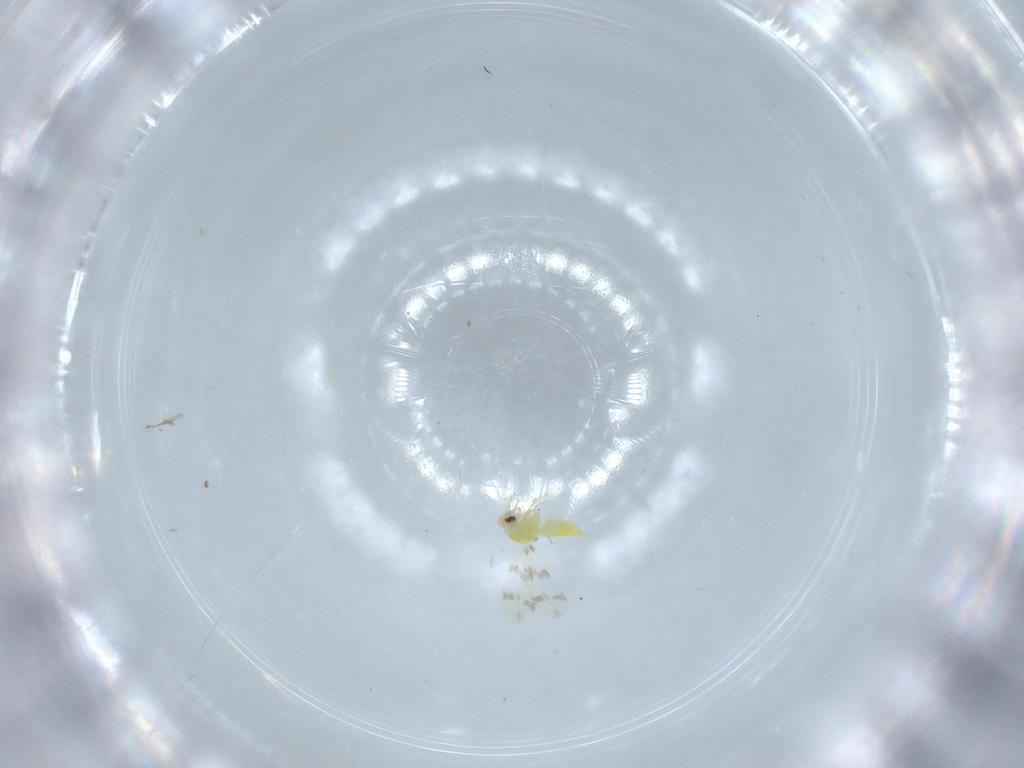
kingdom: Animalia
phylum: Arthropoda
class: Insecta
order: Hemiptera
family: Aleyrodidae
